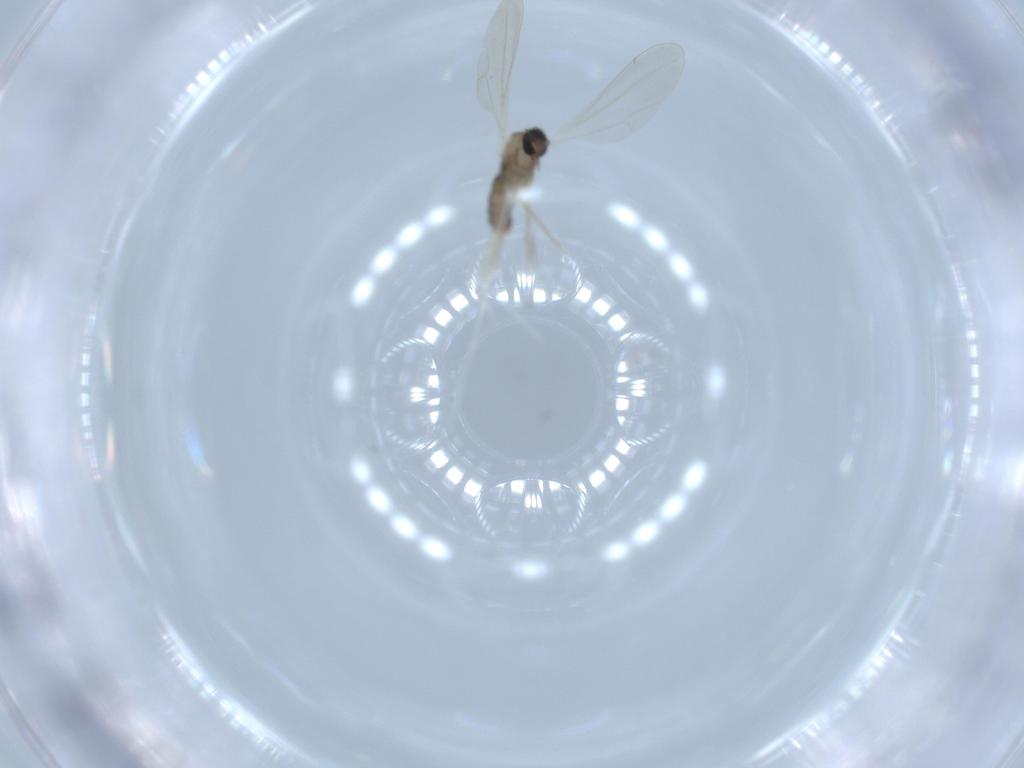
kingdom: Animalia
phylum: Arthropoda
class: Insecta
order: Diptera
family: Cecidomyiidae
